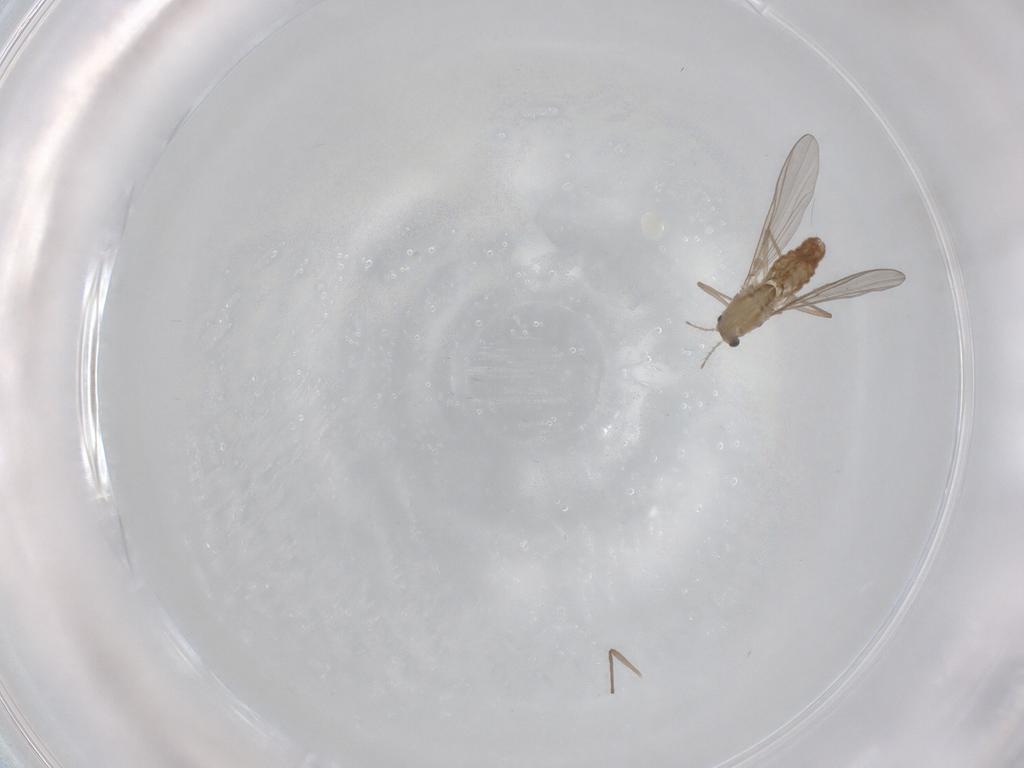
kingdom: Animalia
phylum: Arthropoda
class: Insecta
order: Diptera
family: Chironomidae
